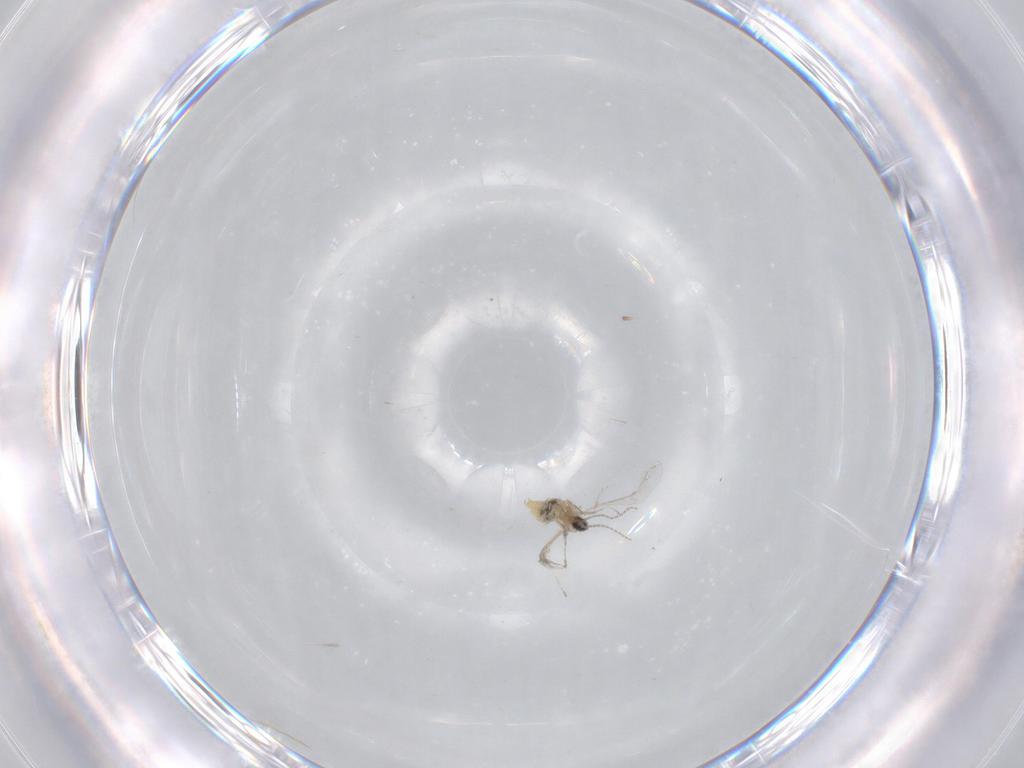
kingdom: Animalia
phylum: Arthropoda
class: Insecta
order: Diptera
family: Cecidomyiidae
